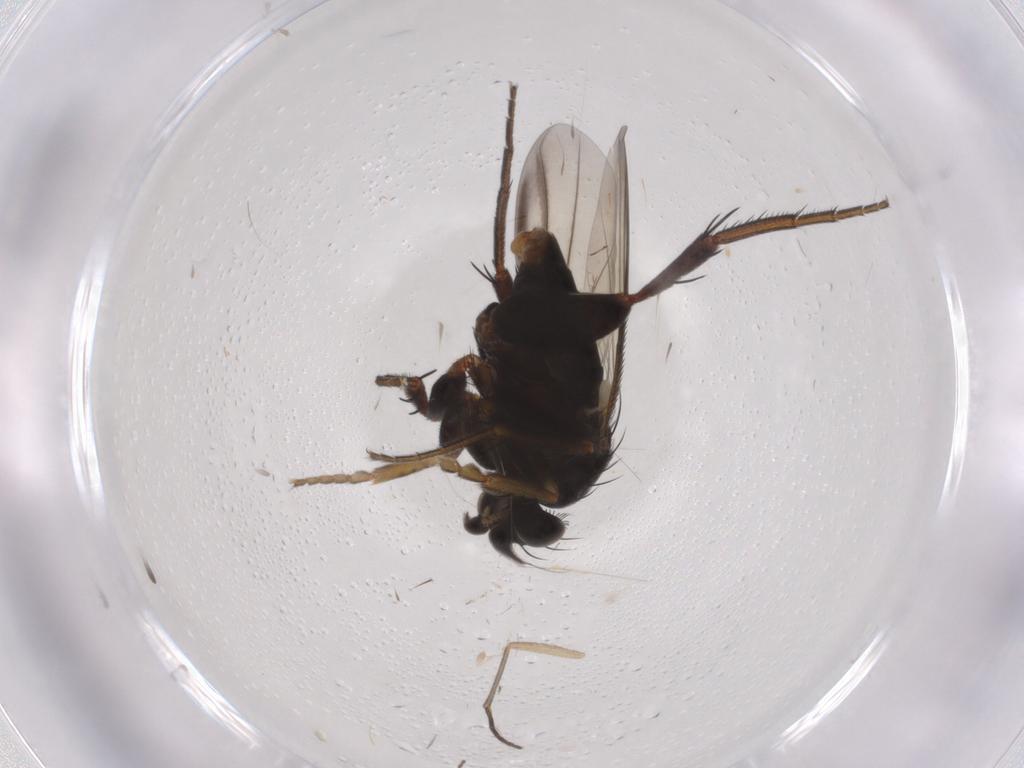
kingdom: Animalia
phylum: Arthropoda
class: Insecta
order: Diptera
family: Phoridae
